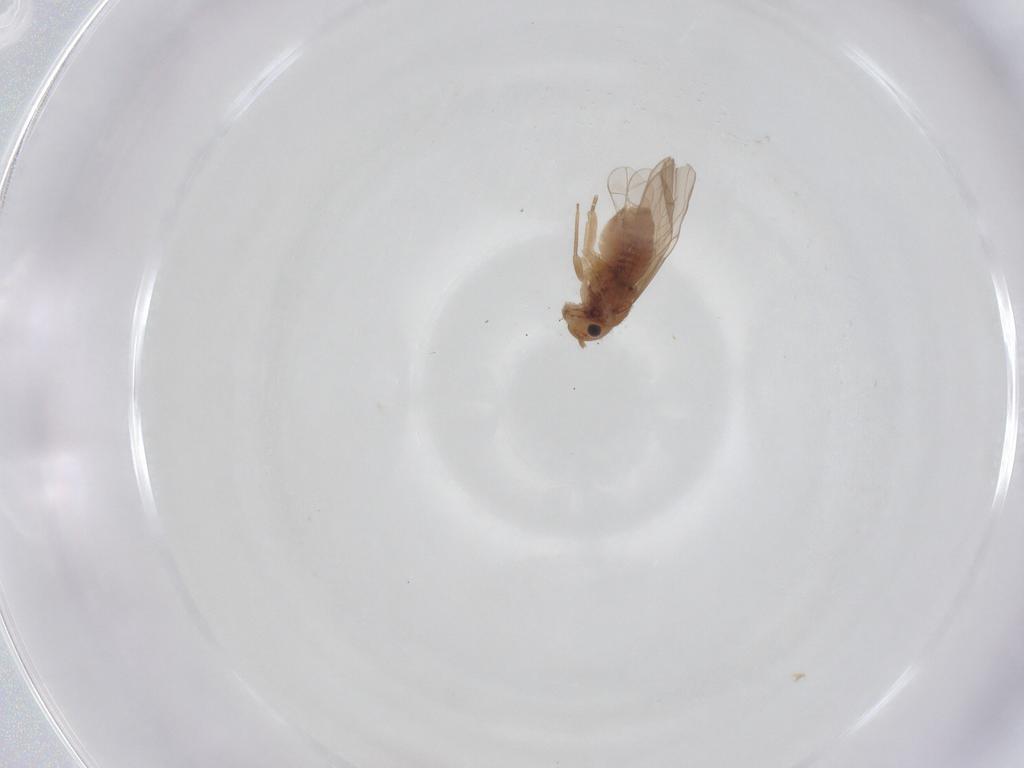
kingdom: Animalia
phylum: Arthropoda
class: Insecta
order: Psocodea
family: Ectopsocidae
